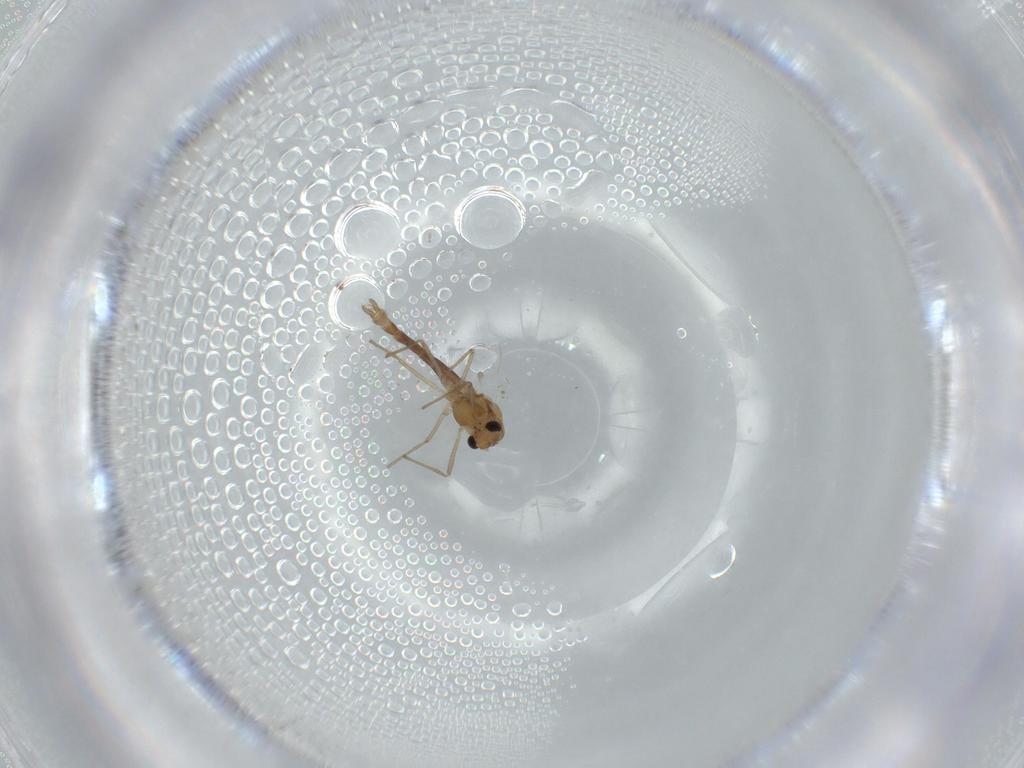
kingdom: Animalia
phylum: Arthropoda
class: Insecta
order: Diptera
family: Chironomidae
